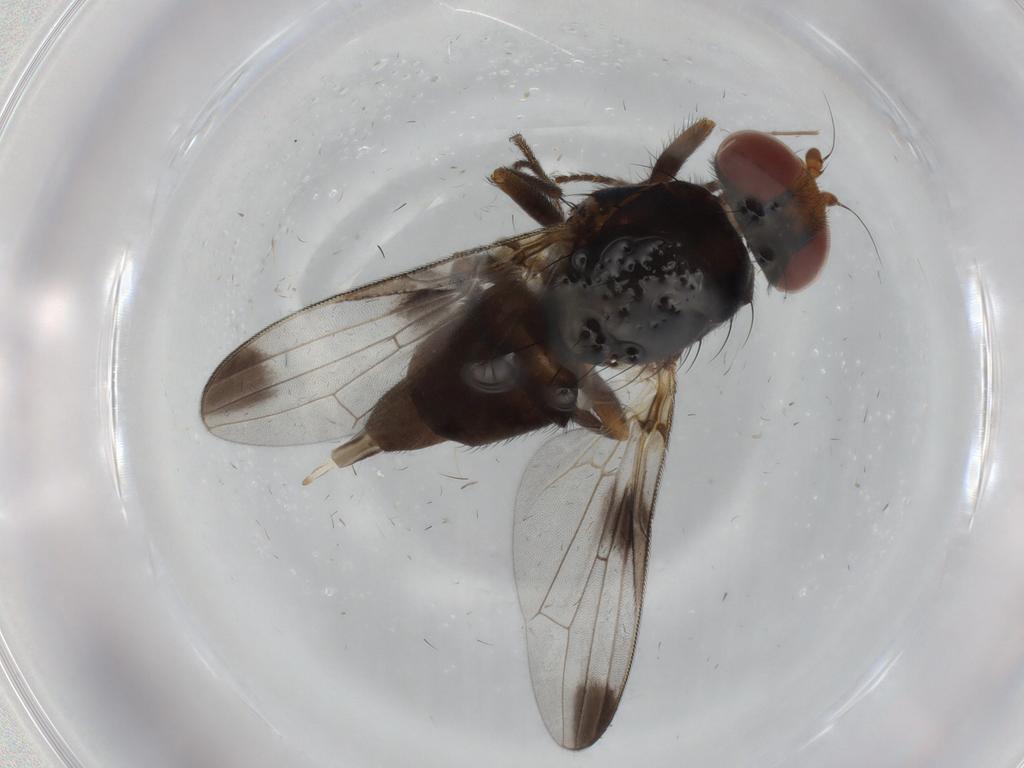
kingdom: Animalia
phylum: Arthropoda
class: Insecta
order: Diptera
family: Ulidiidae
